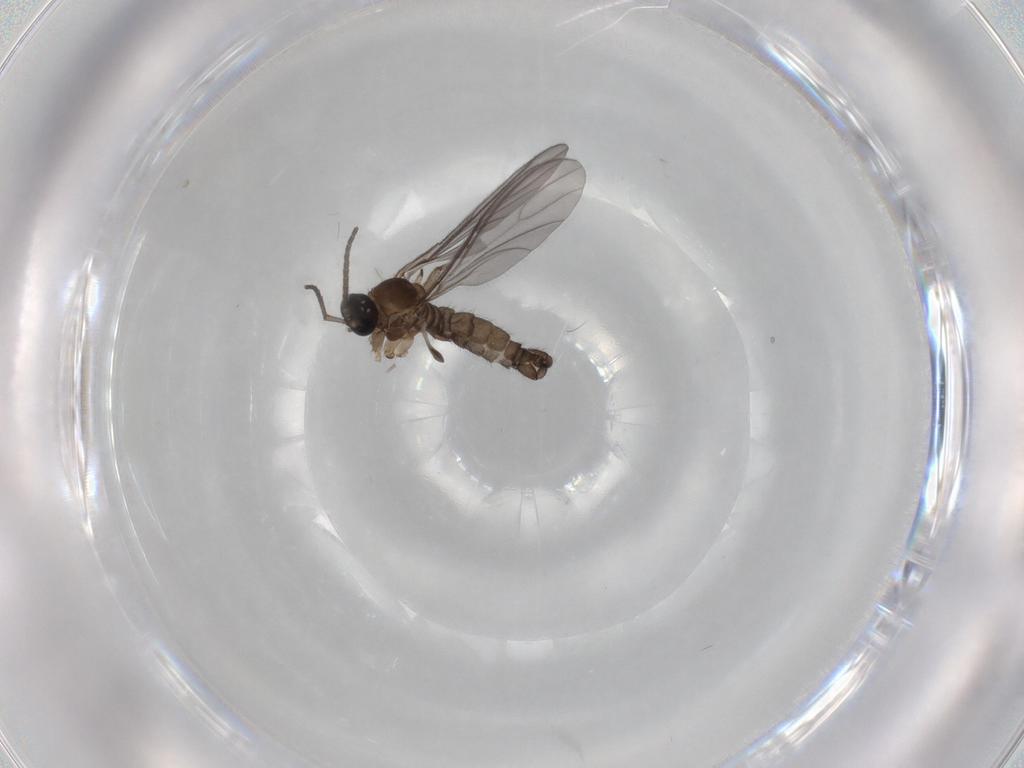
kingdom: Animalia
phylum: Arthropoda
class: Insecta
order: Diptera
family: Sciaridae
